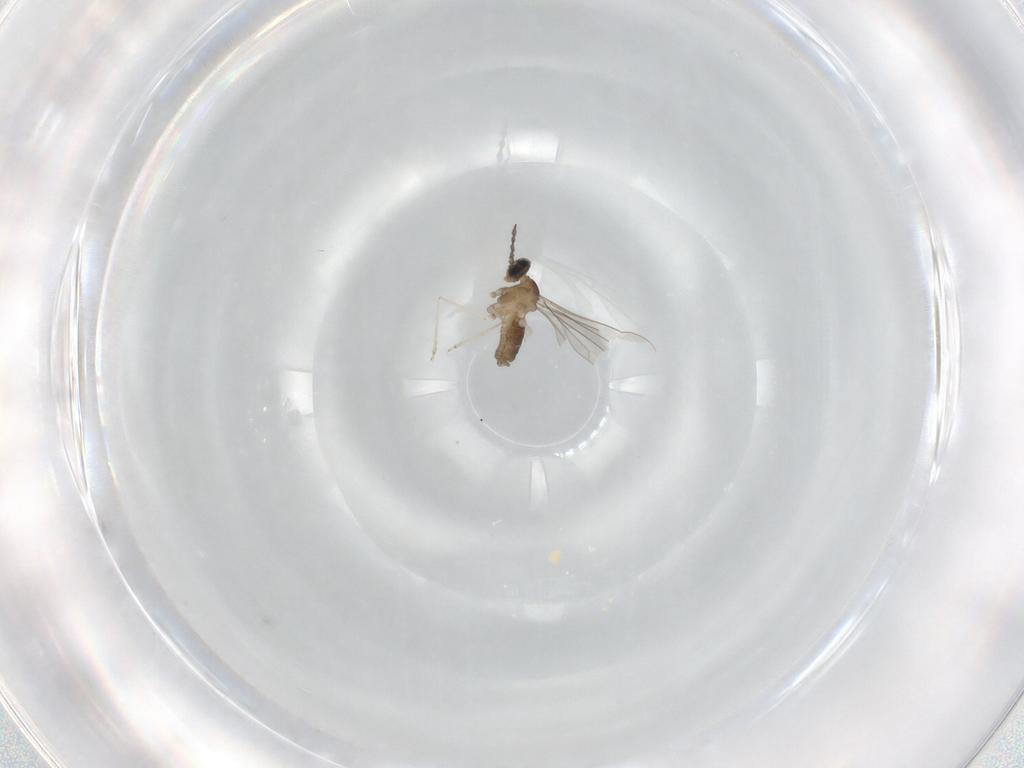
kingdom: Animalia
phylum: Arthropoda
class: Insecta
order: Diptera
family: Cecidomyiidae
